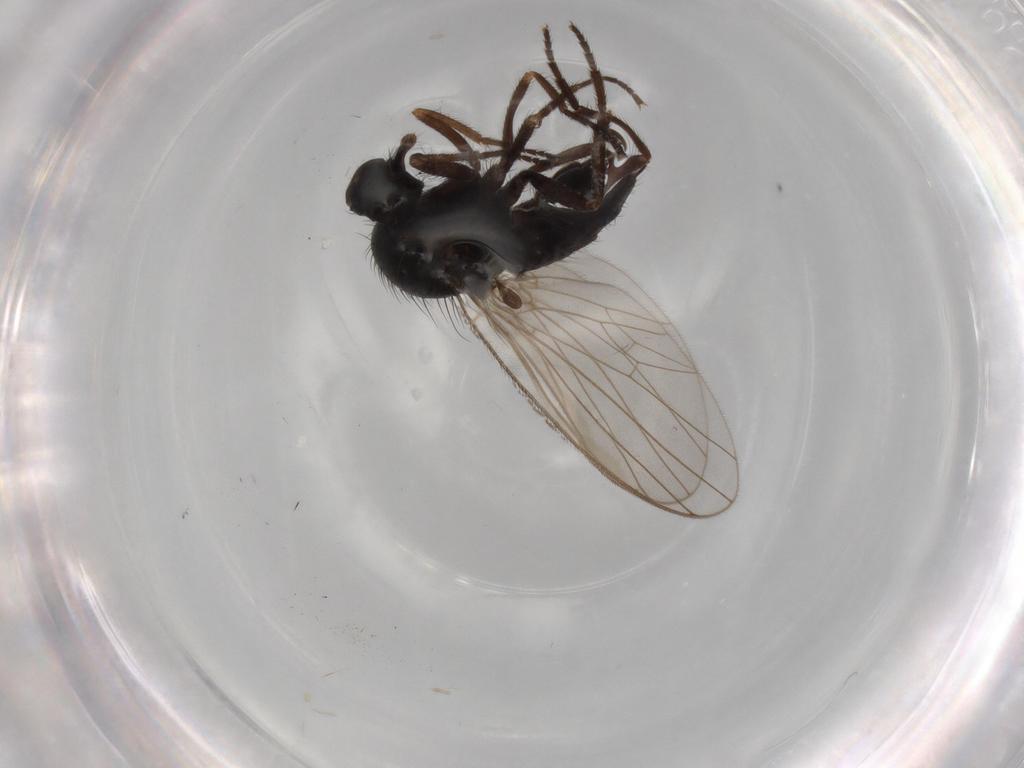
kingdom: Animalia
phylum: Arthropoda
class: Insecta
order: Diptera
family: Dolichopodidae
